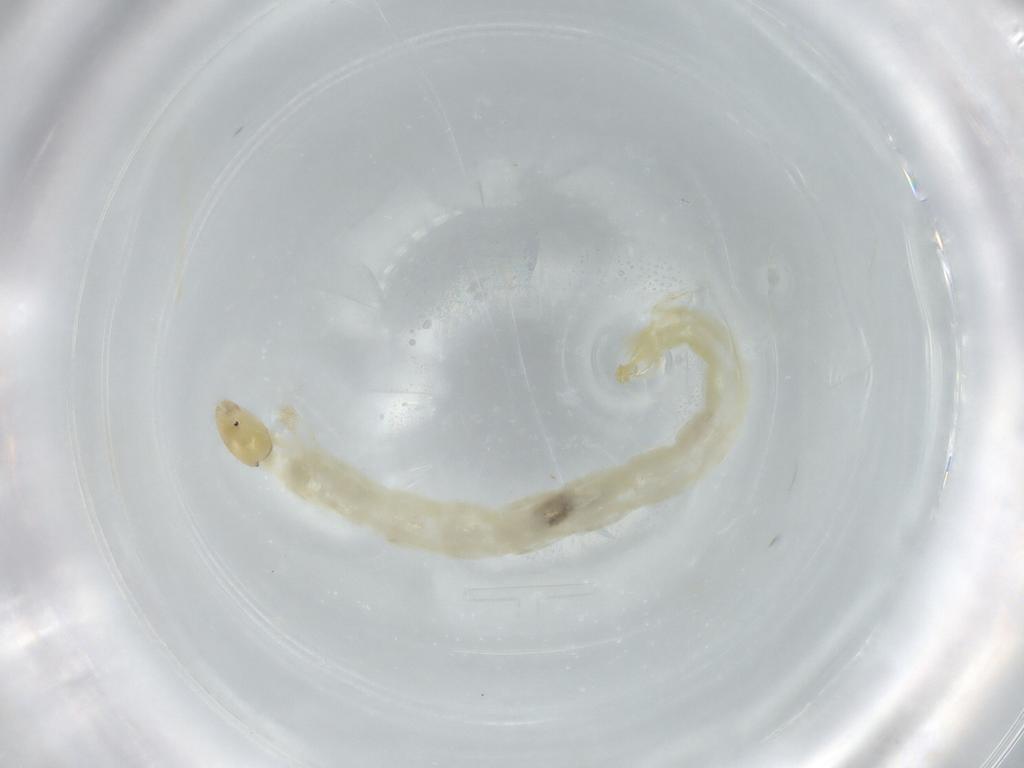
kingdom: Animalia
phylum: Arthropoda
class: Insecta
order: Diptera
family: Chironomidae
